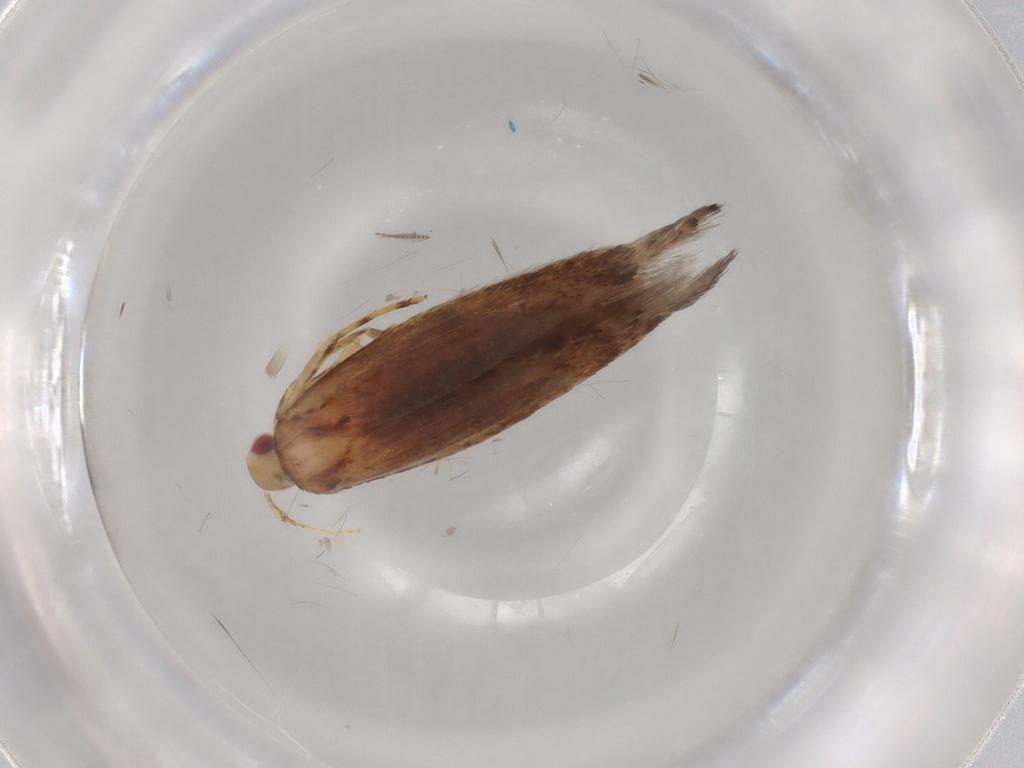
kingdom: Animalia
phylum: Arthropoda
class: Insecta
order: Lepidoptera
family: Cosmopterigidae
